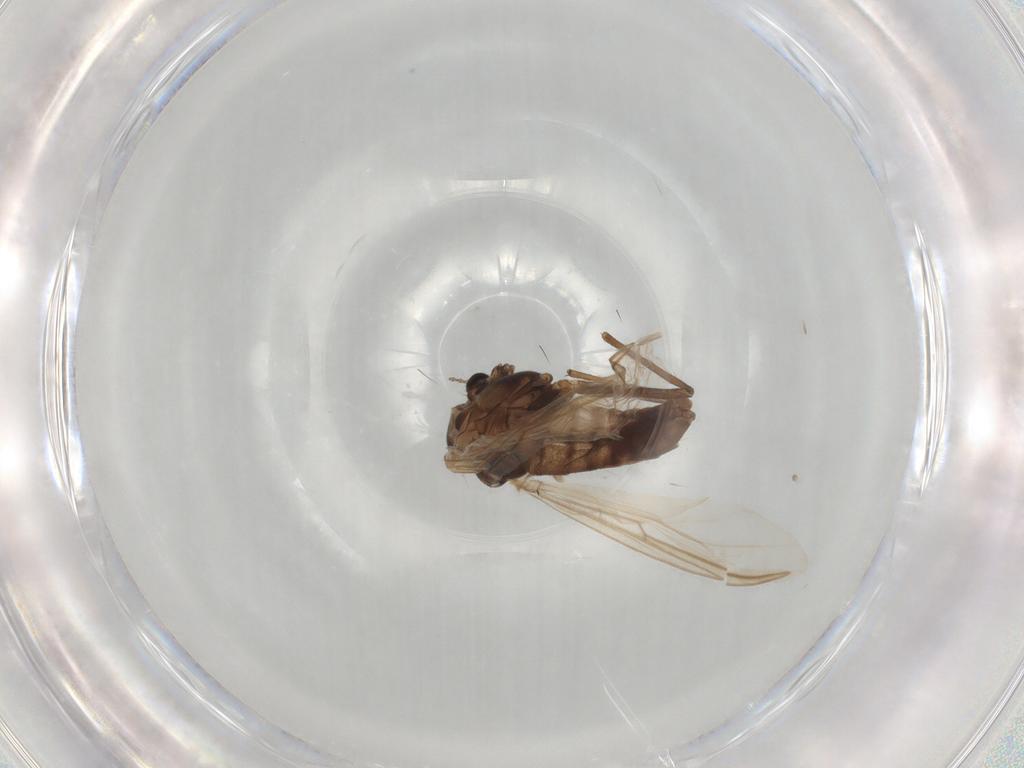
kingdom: Animalia
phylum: Arthropoda
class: Insecta
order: Diptera
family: Chironomidae
